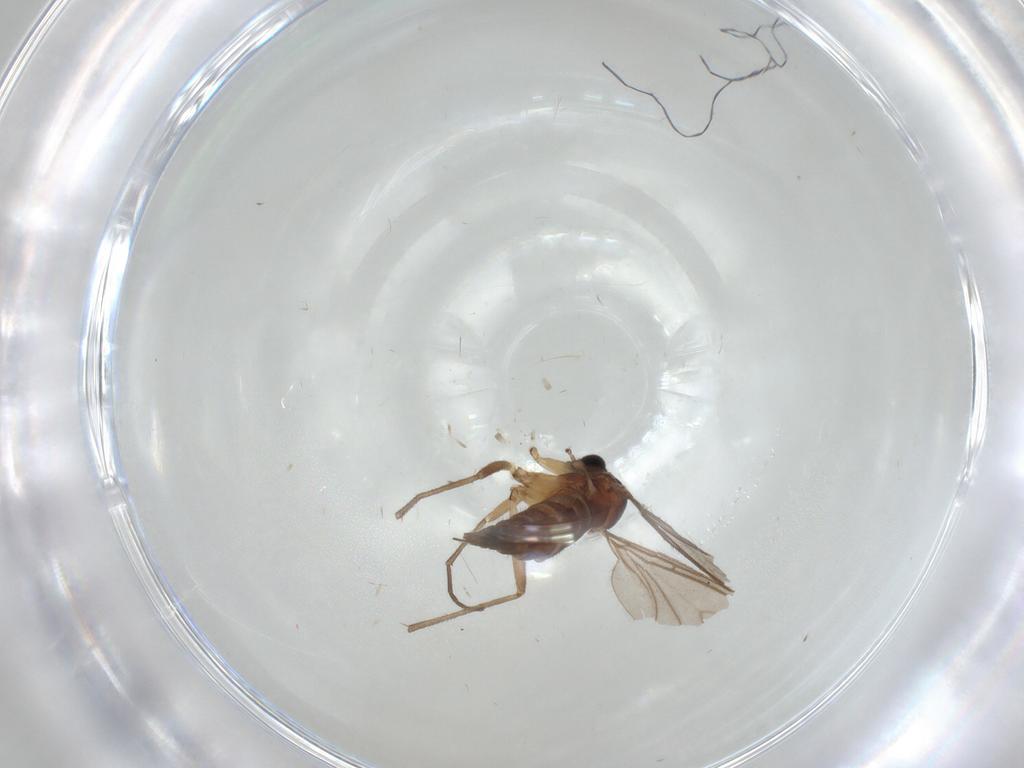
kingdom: Animalia
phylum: Arthropoda
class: Insecta
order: Diptera
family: Sciaridae
